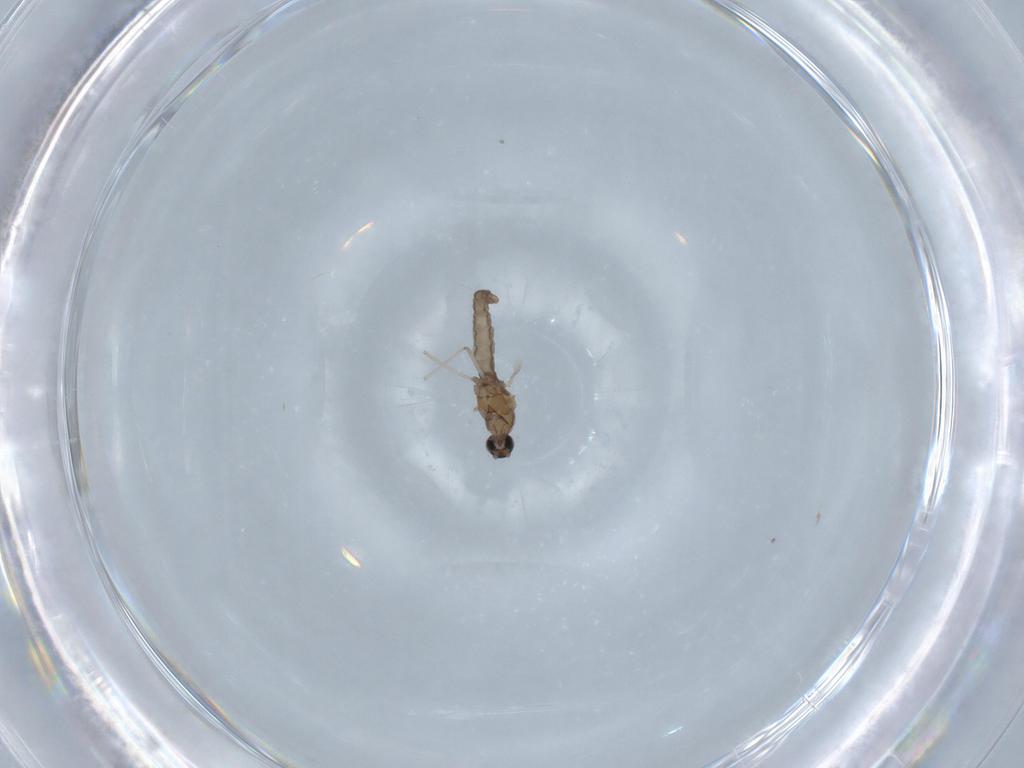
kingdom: Animalia
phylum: Arthropoda
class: Insecta
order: Diptera
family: Cecidomyiidae
